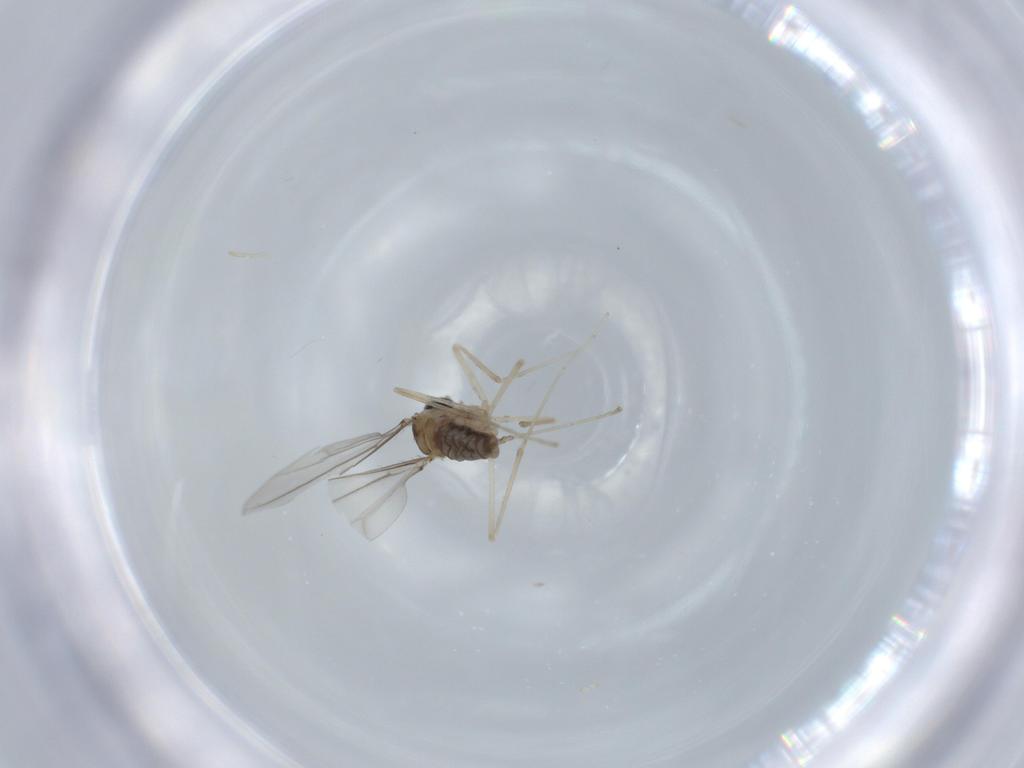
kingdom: Animalia
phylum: Arthropoda
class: Insecta
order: Diptera
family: Cecidomyiidae
